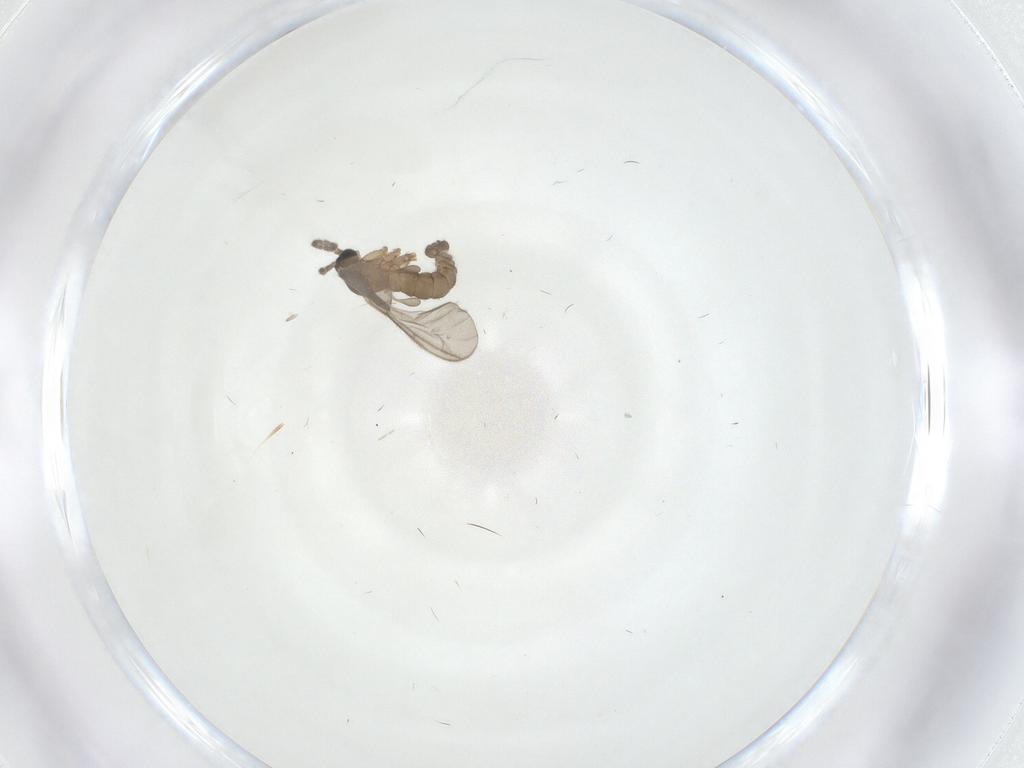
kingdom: Animalia
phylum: Arthropoda
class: Insecta
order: Diptera
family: Sciaridae
